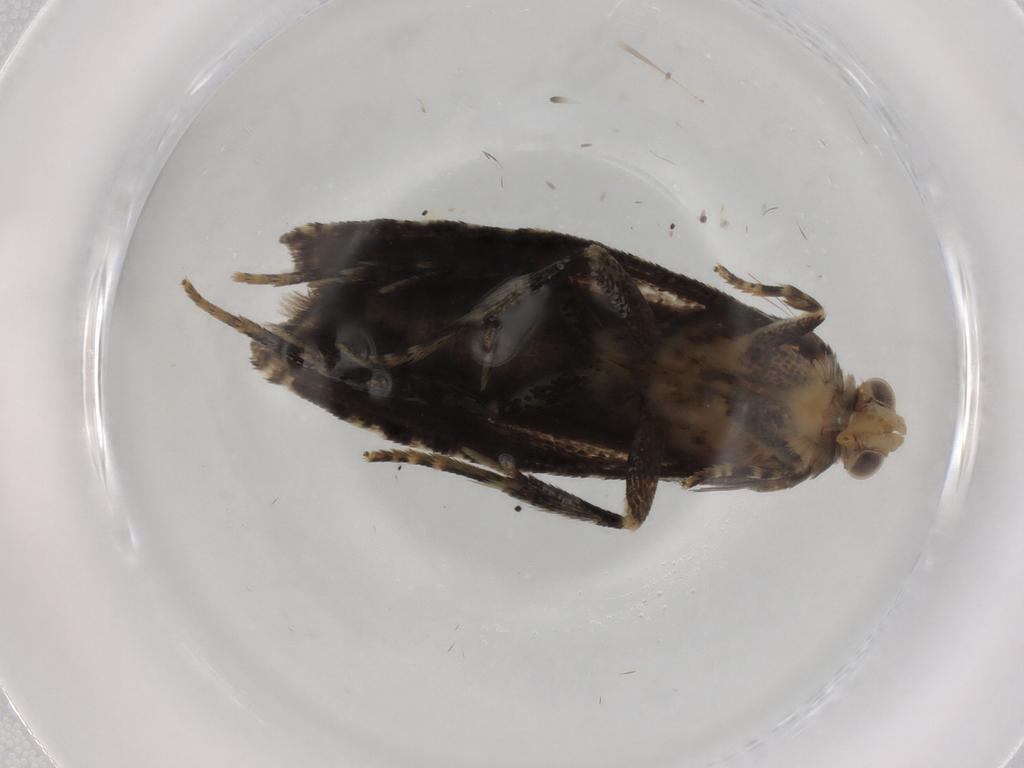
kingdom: Animalia
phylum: Arthropoda
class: Insecta
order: Lepidoptera
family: Tortricidae
